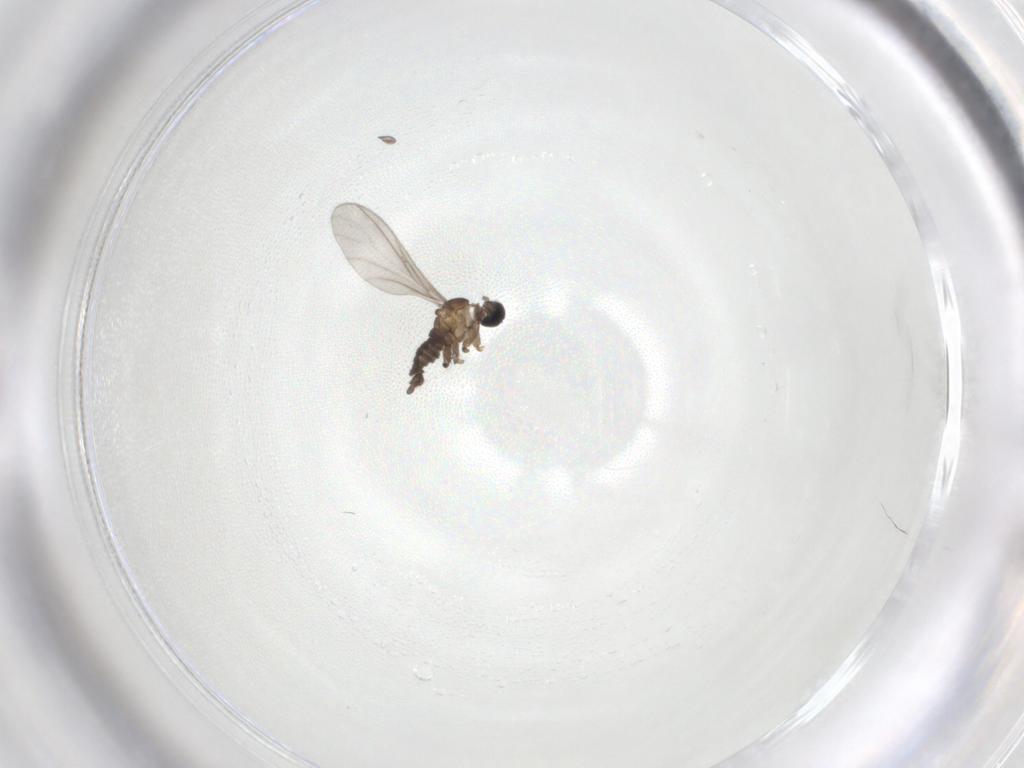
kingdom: Animalia
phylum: Arthropoda
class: Insecta
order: Diptera
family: Sciaridae
